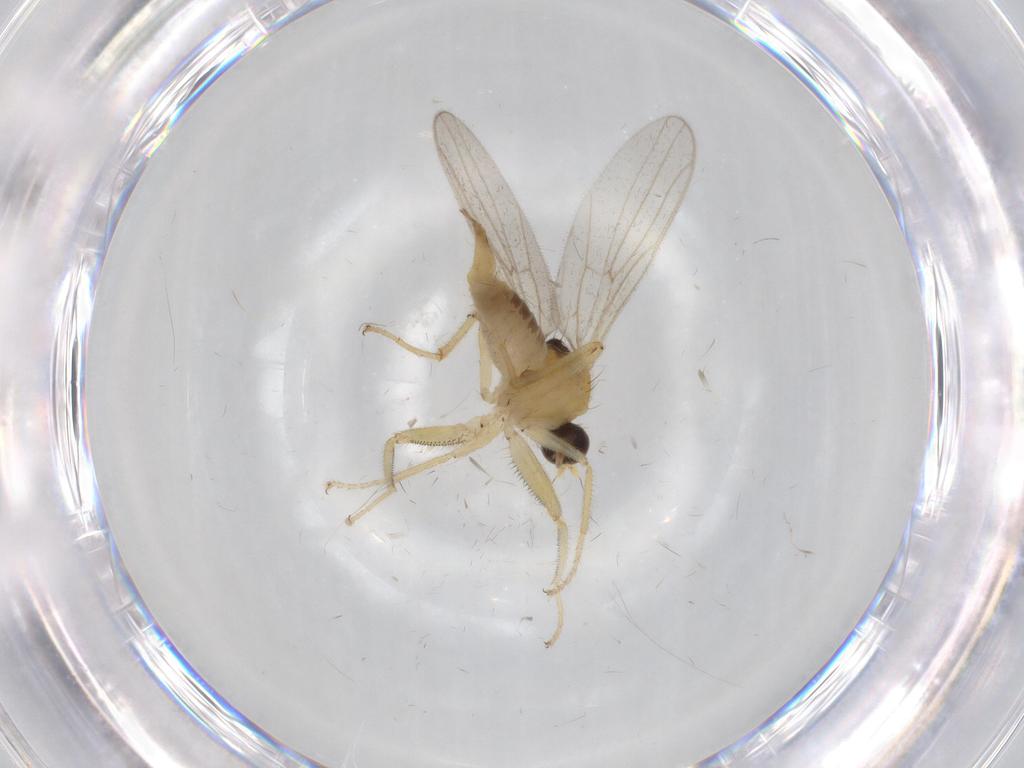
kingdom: Animalia
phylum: Arthropoda
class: Insecta
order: Diptera
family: Hybotidae
